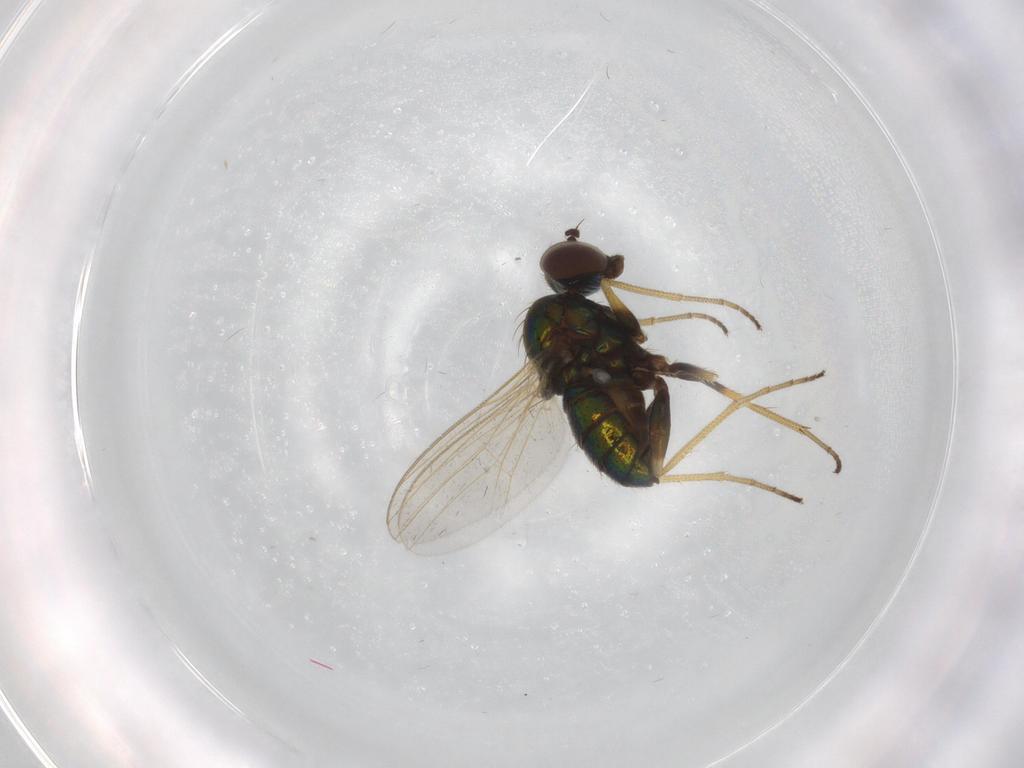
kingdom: Animalia
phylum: Arthropoda
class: Insecta
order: Diptera
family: Dolichopodidae
